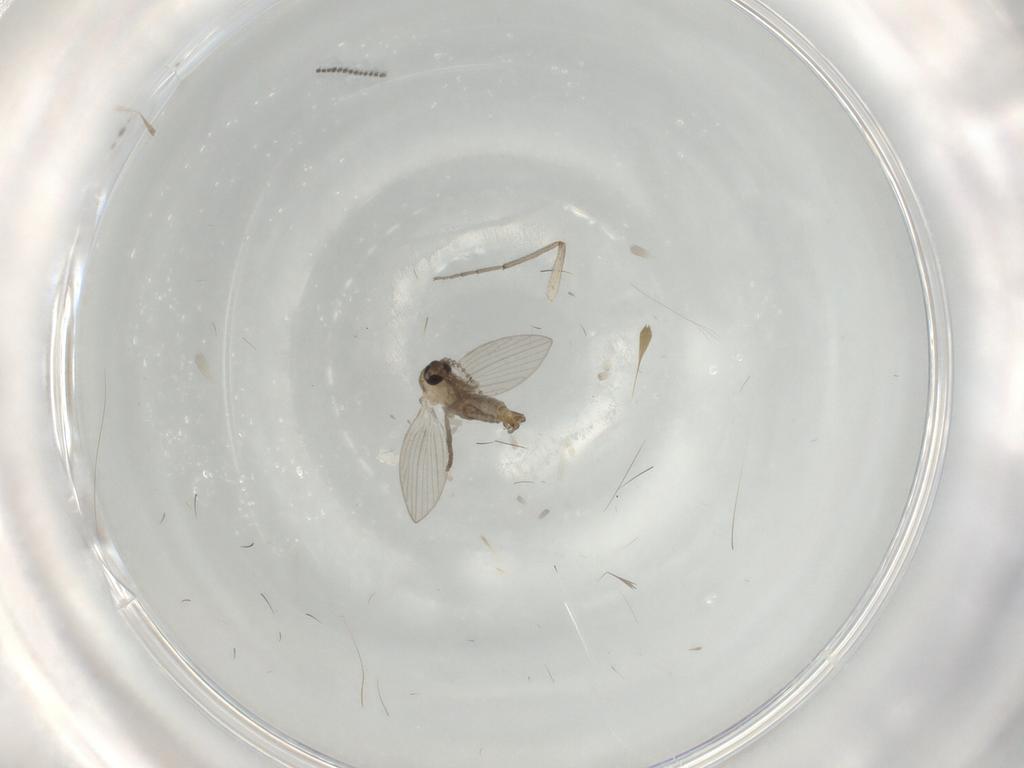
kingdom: Animalia
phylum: Arthropoda
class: Insecta
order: Diptera
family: Psychodidae
